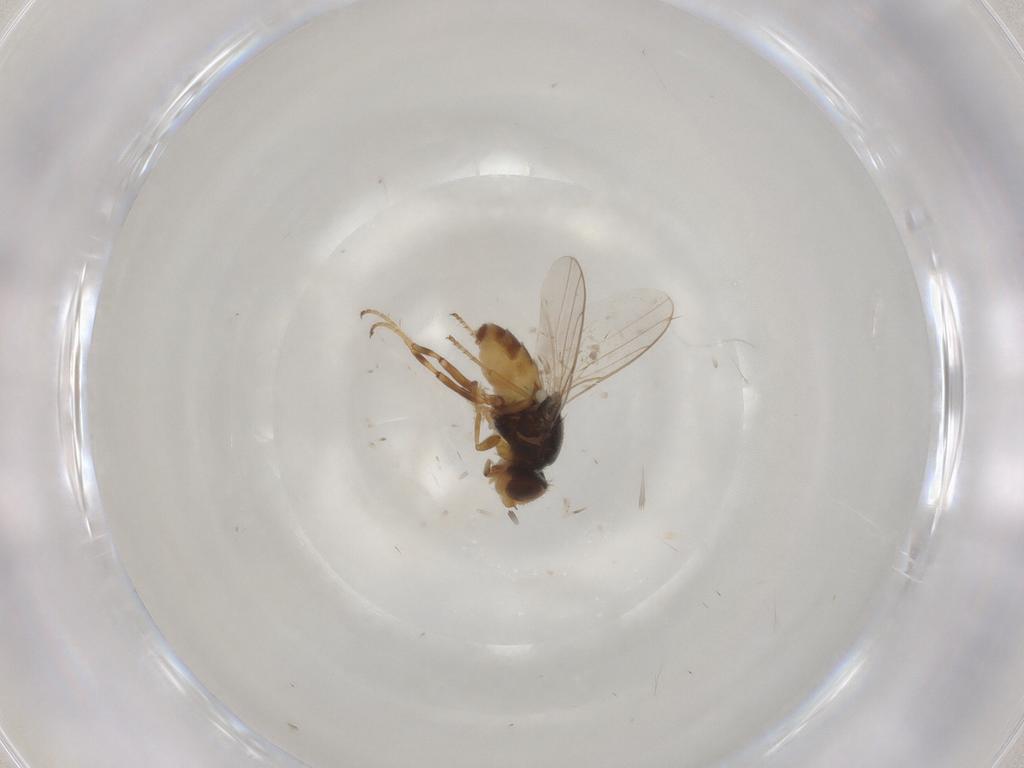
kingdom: Animalia
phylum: Arthropoda
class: Insecta
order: Diptera
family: Chloropidae
